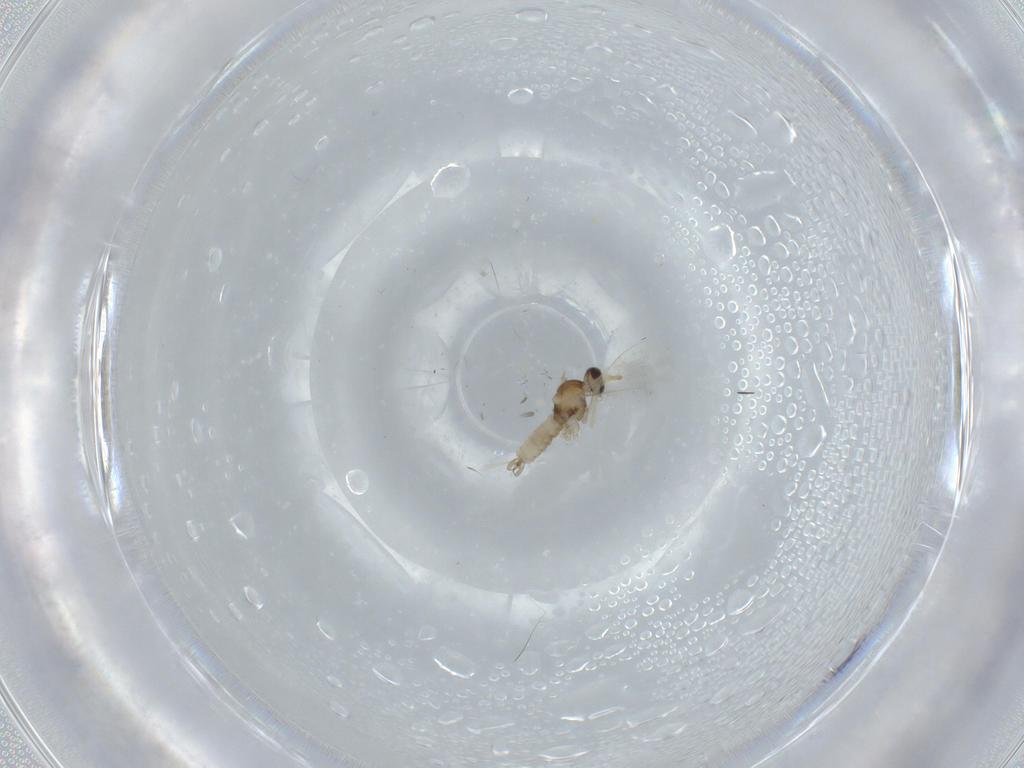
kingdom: Animalia
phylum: Arthropoda
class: Insecta
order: Diptera
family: Cecidomyiidae
